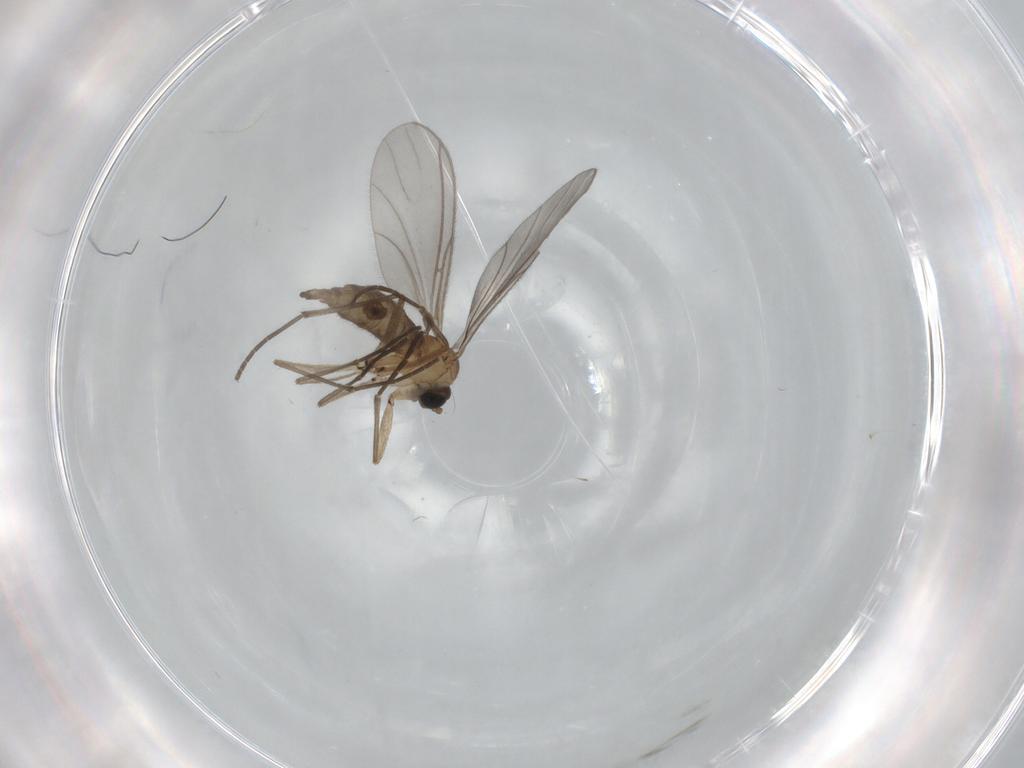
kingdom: Animalia
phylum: Arthropoda
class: Insecta
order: Diptera
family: Sciaridae
